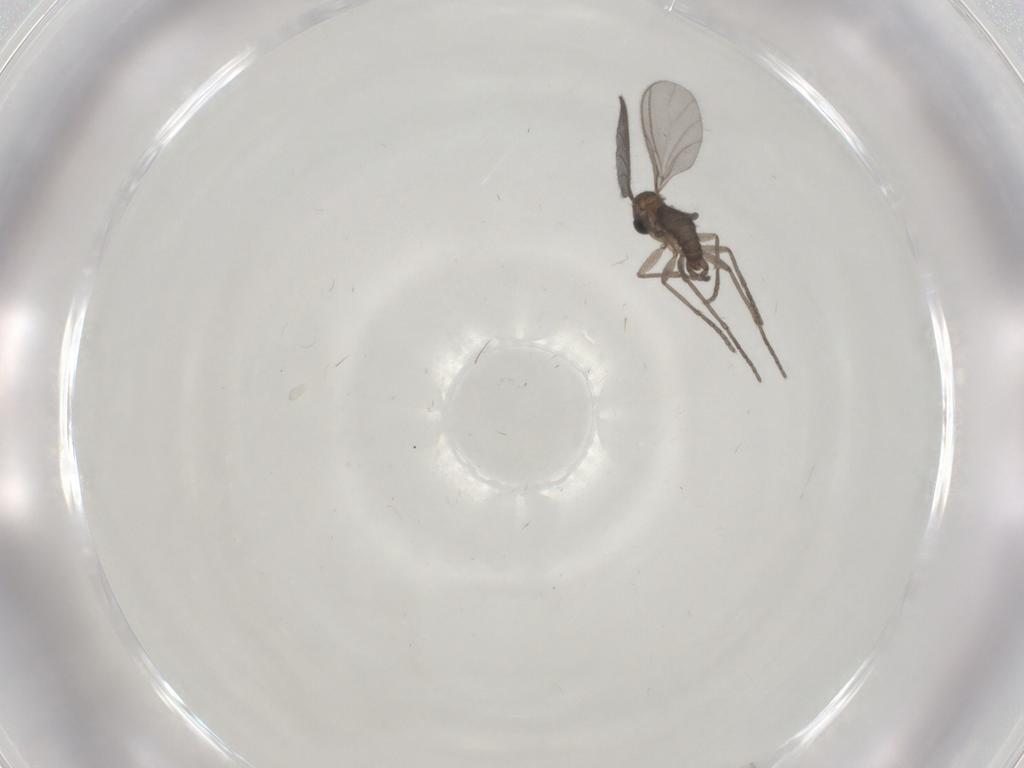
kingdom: Animalia
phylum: Arthropoda
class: Insecta
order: Diptera
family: Sciaridae
